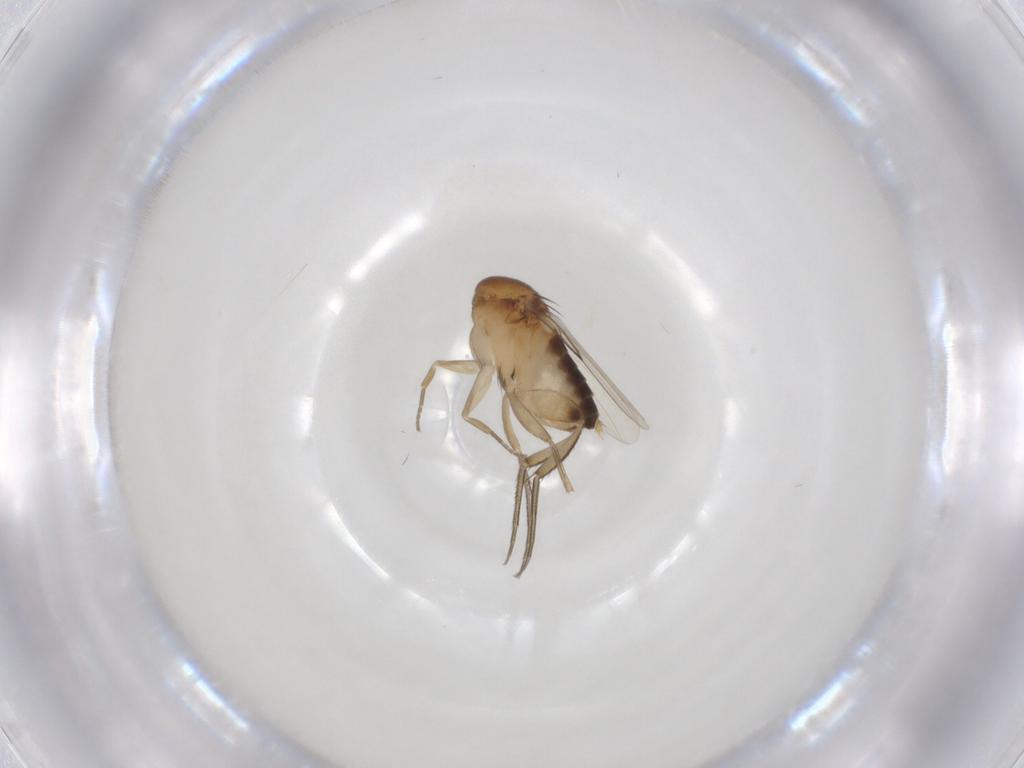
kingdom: Animalia
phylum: Arthropoda
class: Insecta
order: Diptera
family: Phoridae
